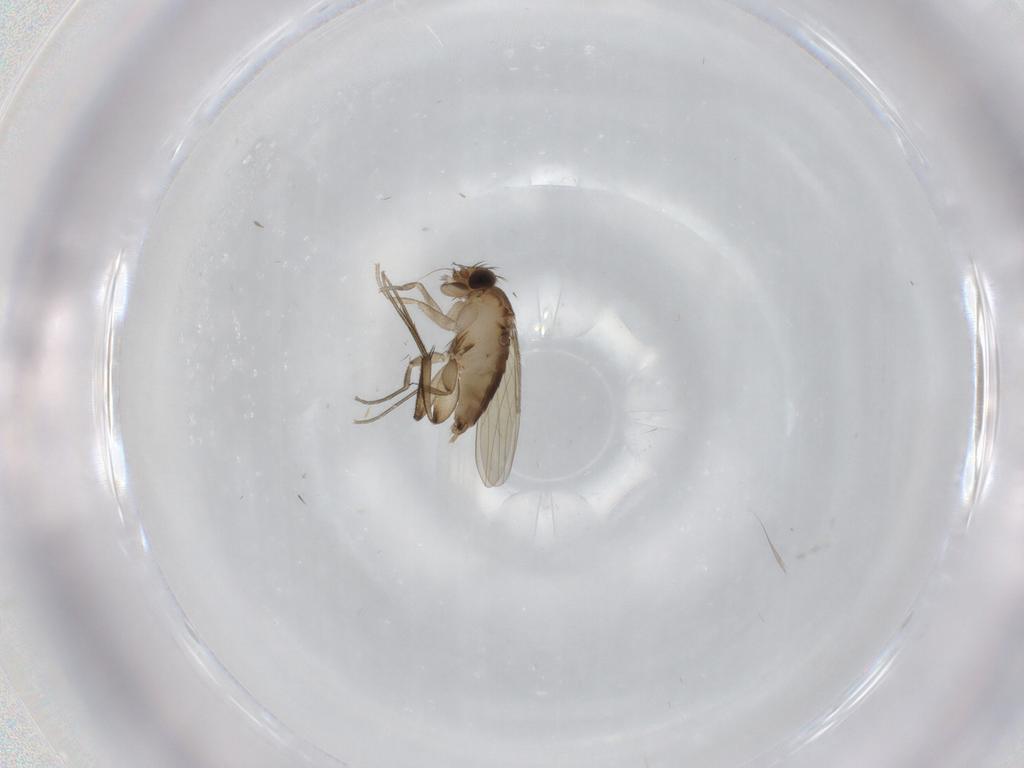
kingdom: Animalia
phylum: Arthropoda
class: Insecta
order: Diptera
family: Phoridae
